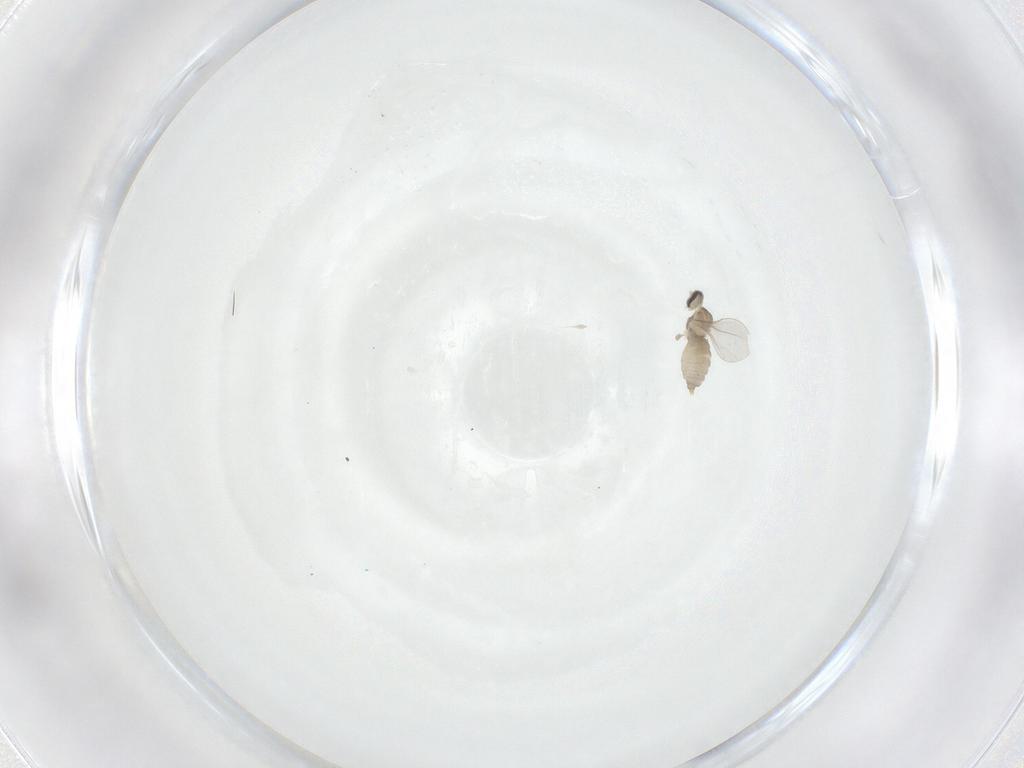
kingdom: Animalia
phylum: Arthropoda
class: Insecta
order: Diptera
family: Cecidomyiidae
